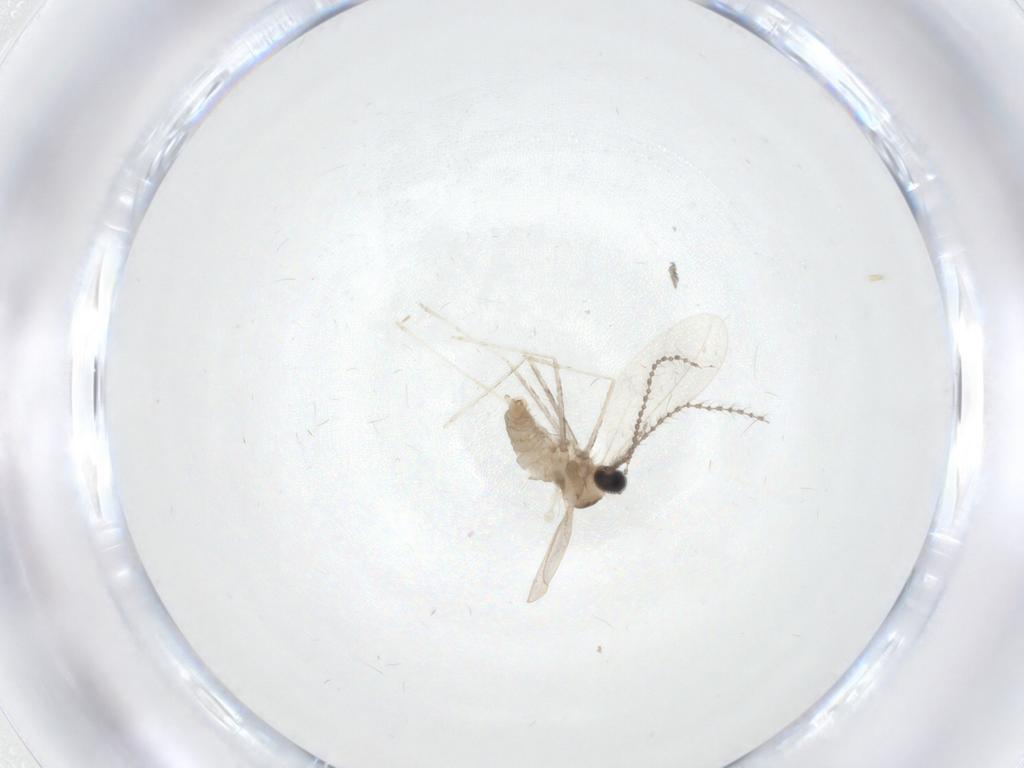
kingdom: Animalia
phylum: Arthropoda
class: Insecta
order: Diptera
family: Cecidomyiidae
